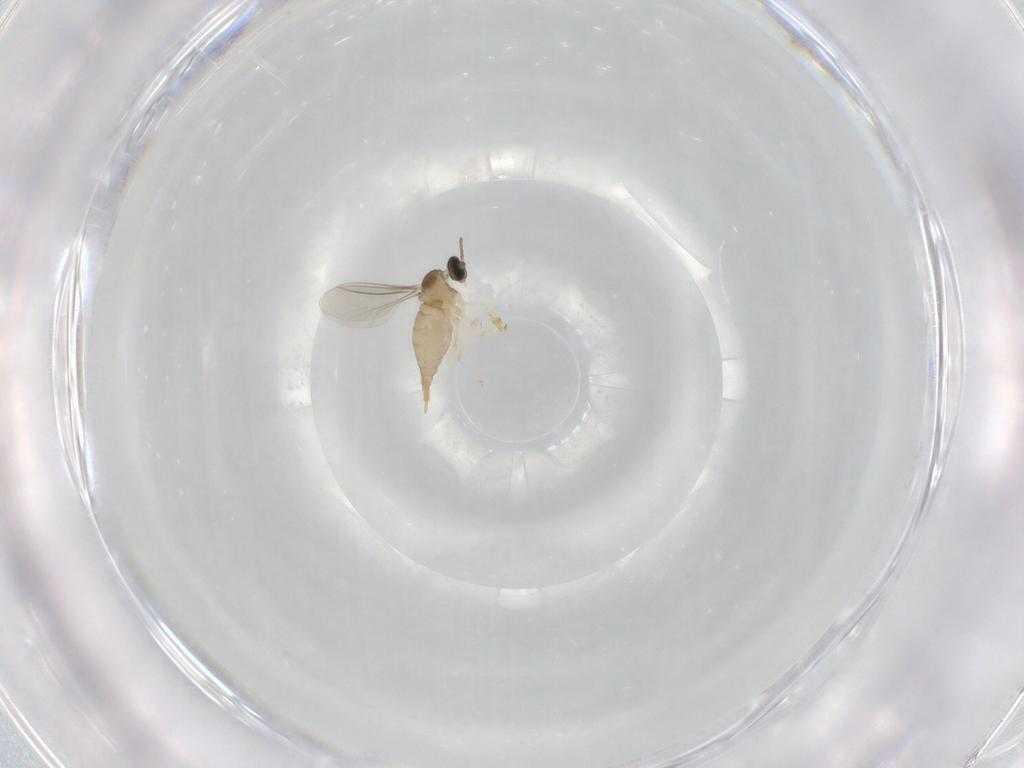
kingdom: Animalia
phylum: Arthropoda
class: Insecta
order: Diptera
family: Cecidomyiidae
